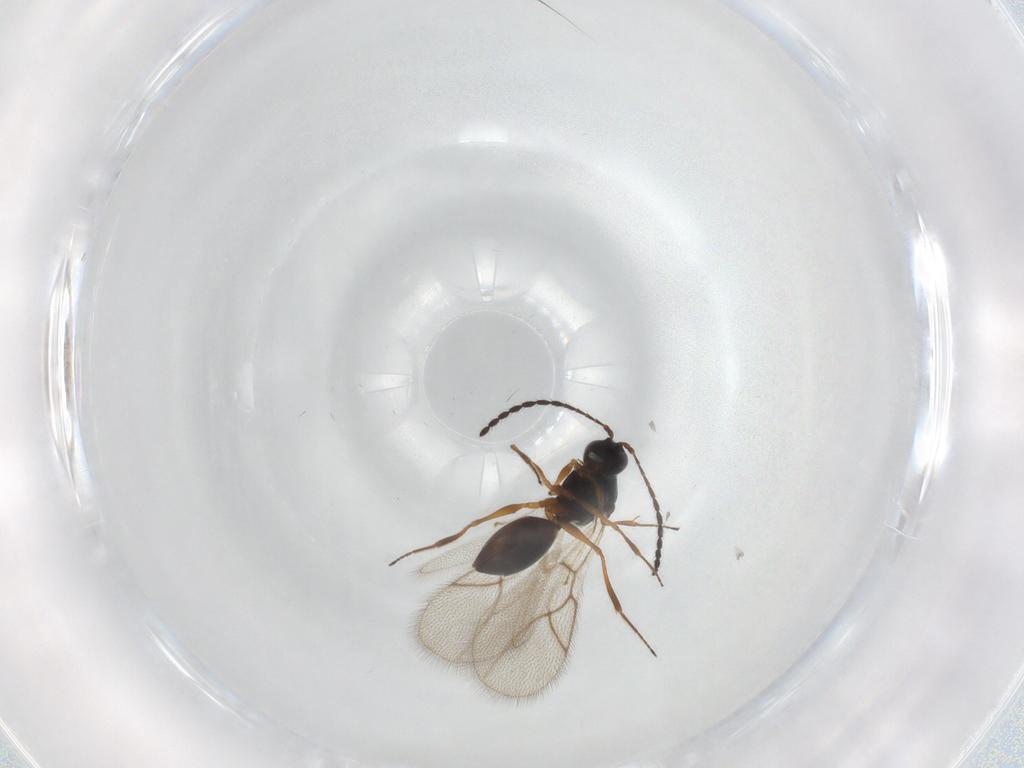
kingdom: Animalia
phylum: Arthropoda
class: Insecta
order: Hymenoptera
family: Figitidae
